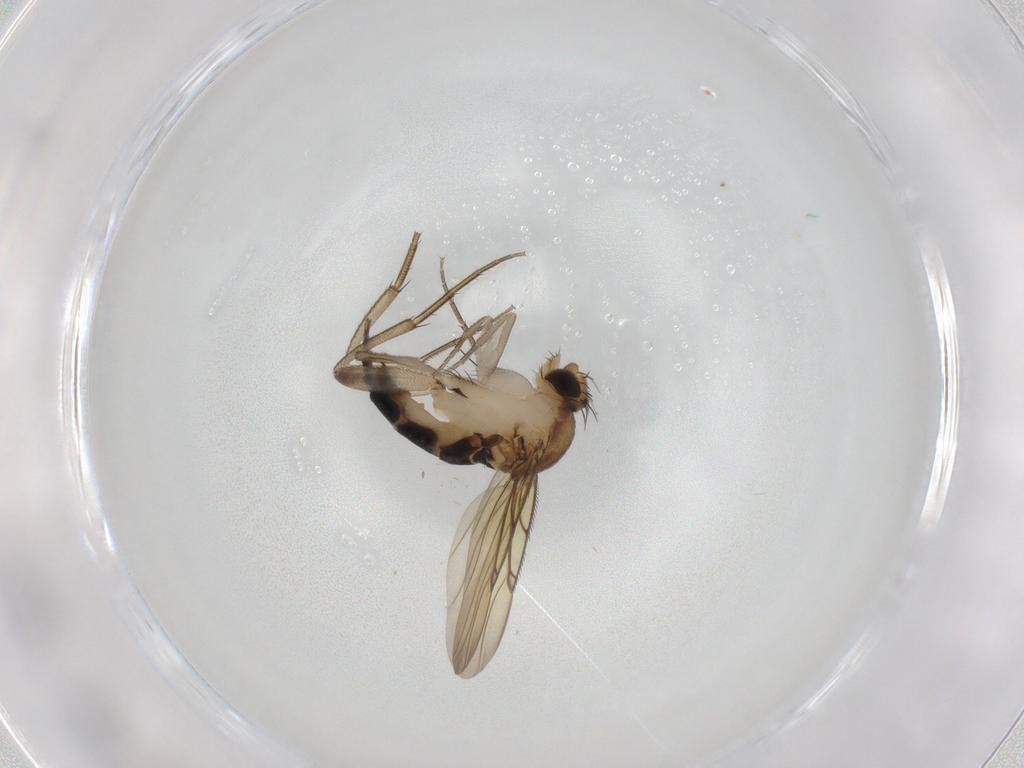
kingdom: Animalia
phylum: Arthropoda
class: Insecta
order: Diptera
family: Phoridae
